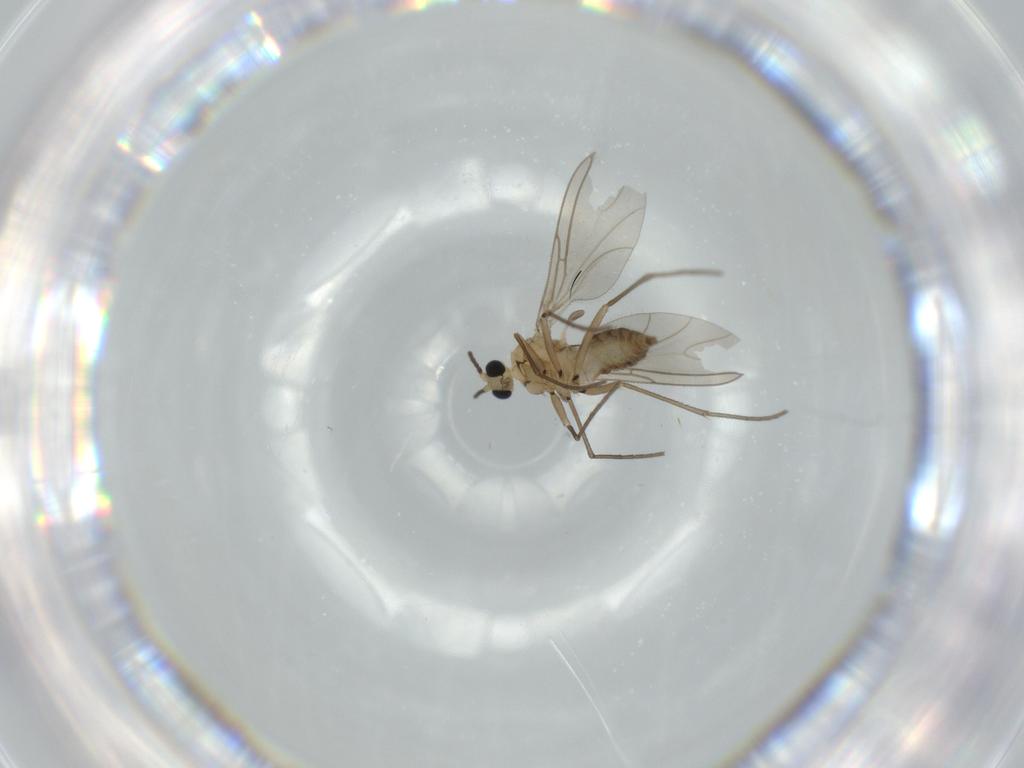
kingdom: Animalia
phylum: Arthropoda
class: Insecta
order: Diptera
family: Sciaridae
